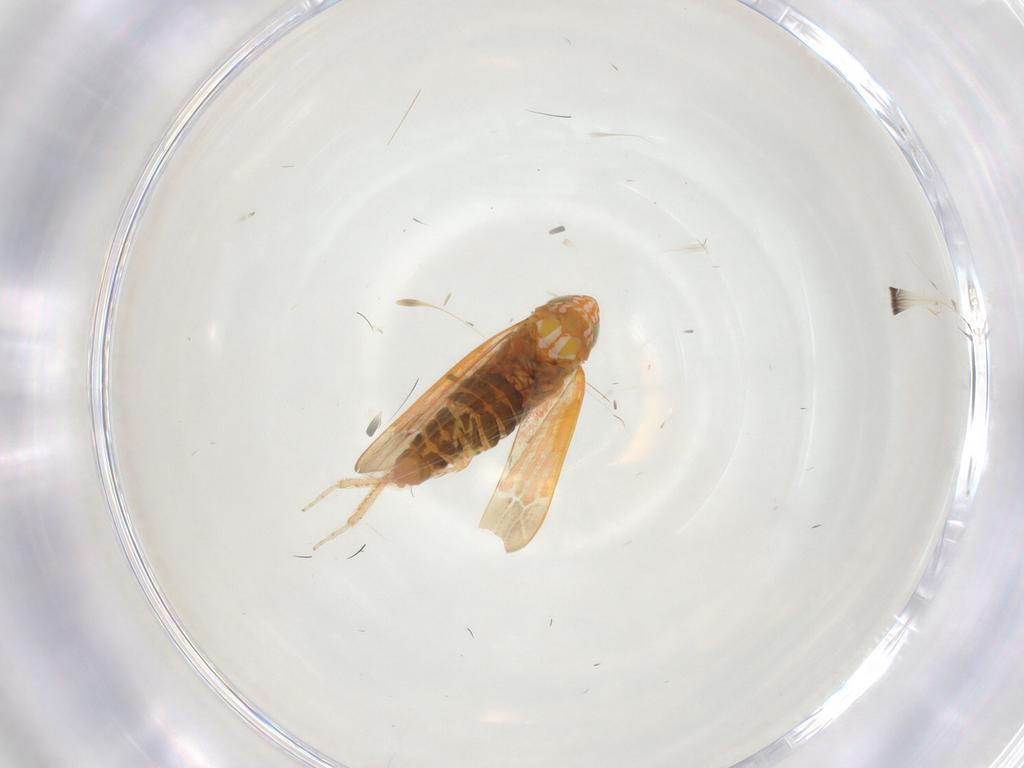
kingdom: Animalia
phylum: Arthropoda
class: Insecta
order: Hemiptera
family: Cicadellidae
